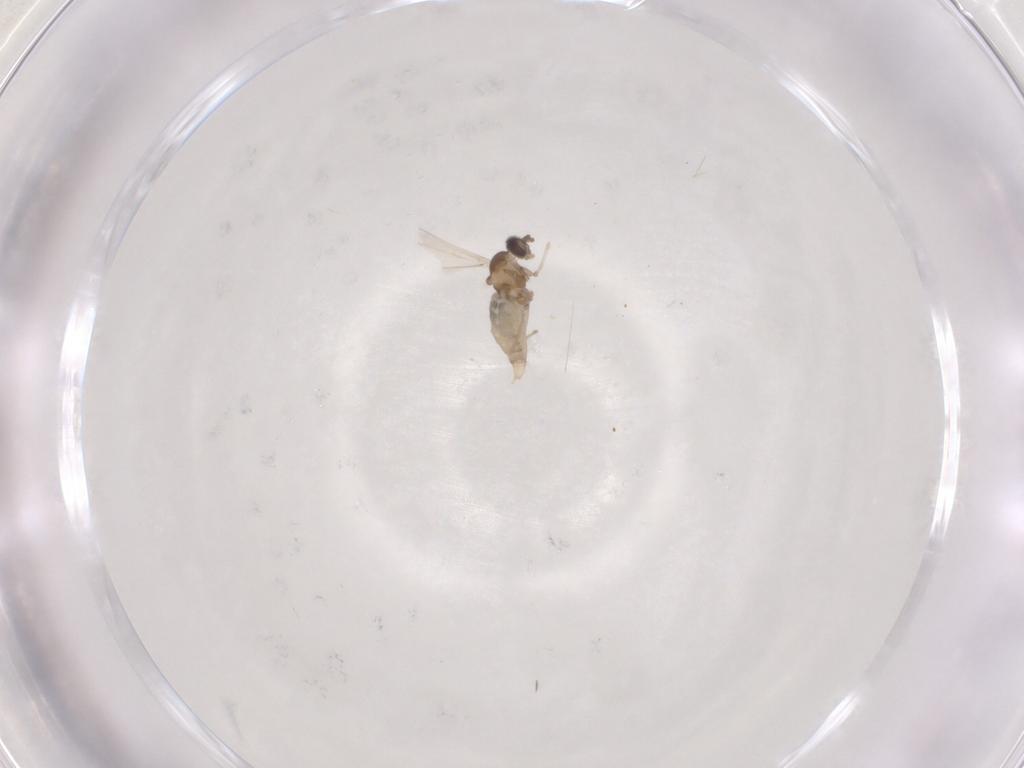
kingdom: Animalia
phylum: Arthropoda
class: Insecta
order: Diptera
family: Cecidomyiidae
